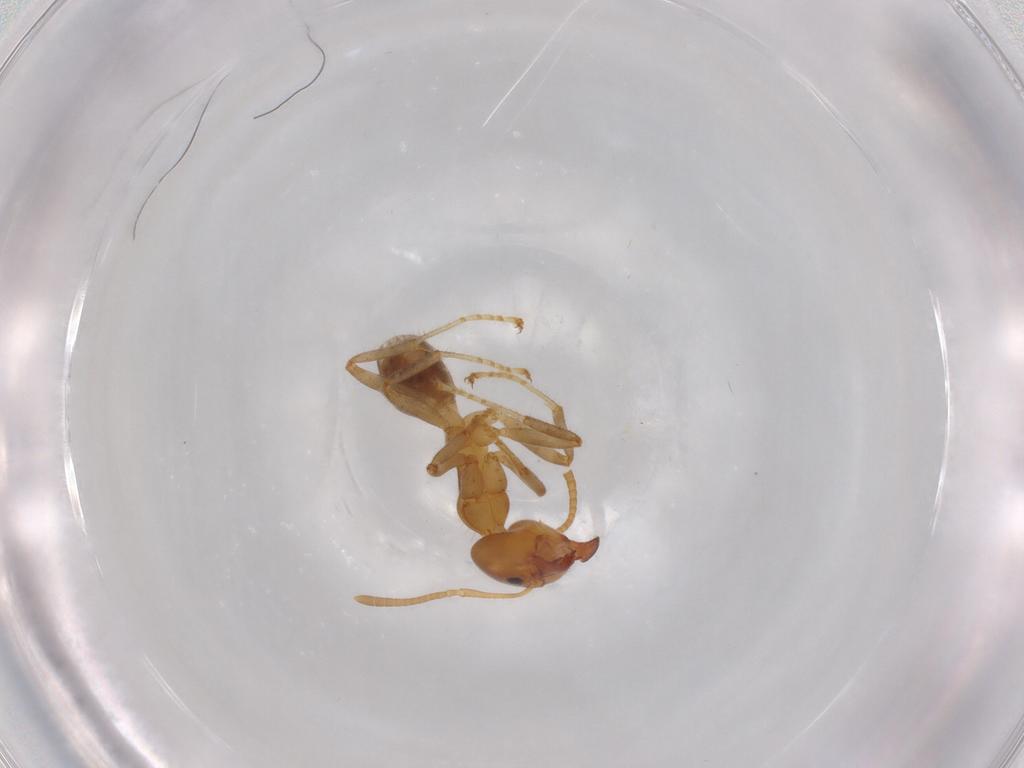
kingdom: Animalia
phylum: Arthropoda
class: Insecta
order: Hymenoptera
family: Formicidae
